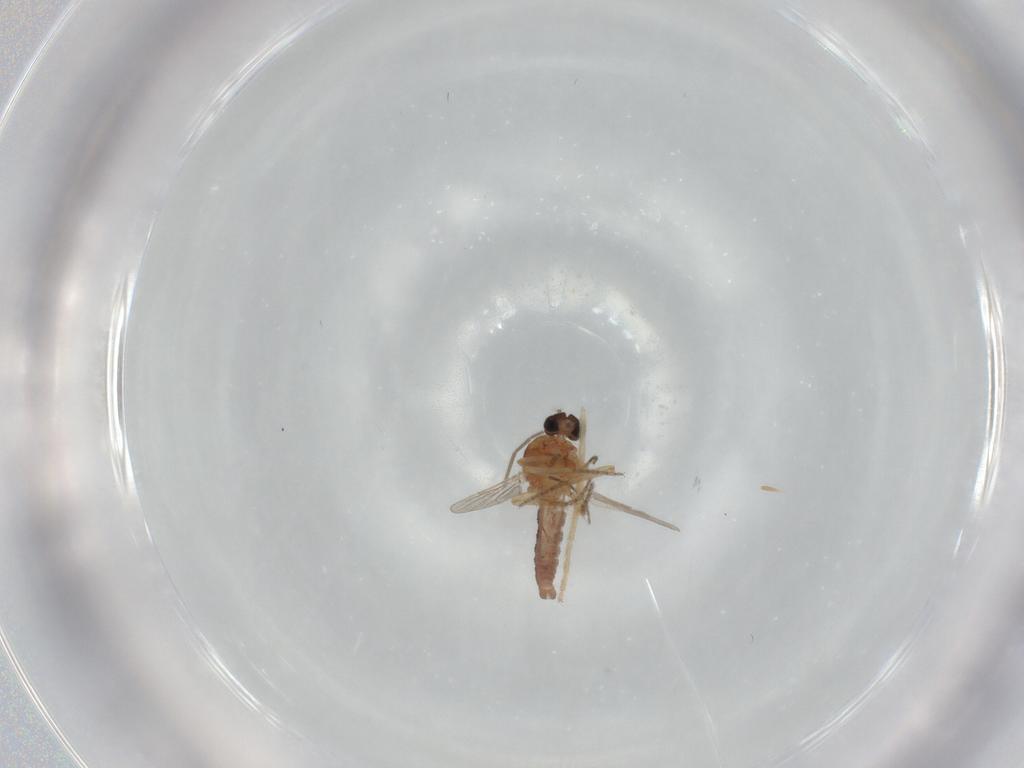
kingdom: Animalia
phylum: Arthropoda
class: Insecta
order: Diptera
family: Ceratopogonidae
